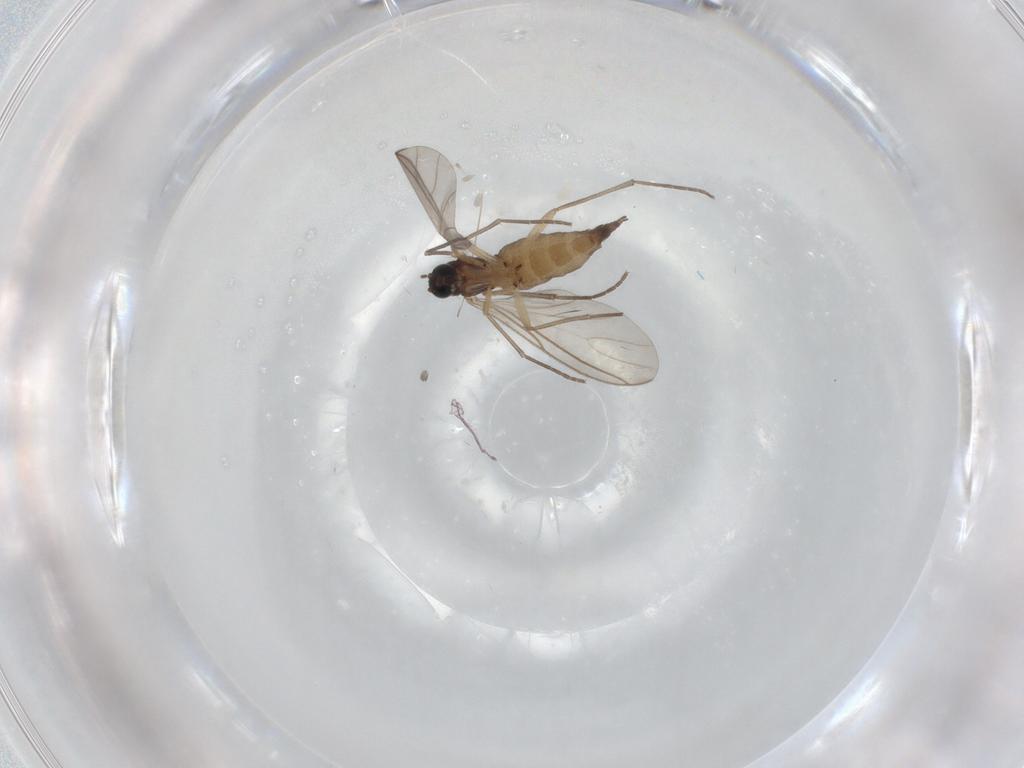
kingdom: Animalia
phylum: Arthropoda
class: Insecta
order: Diptera
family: Sciaridae
